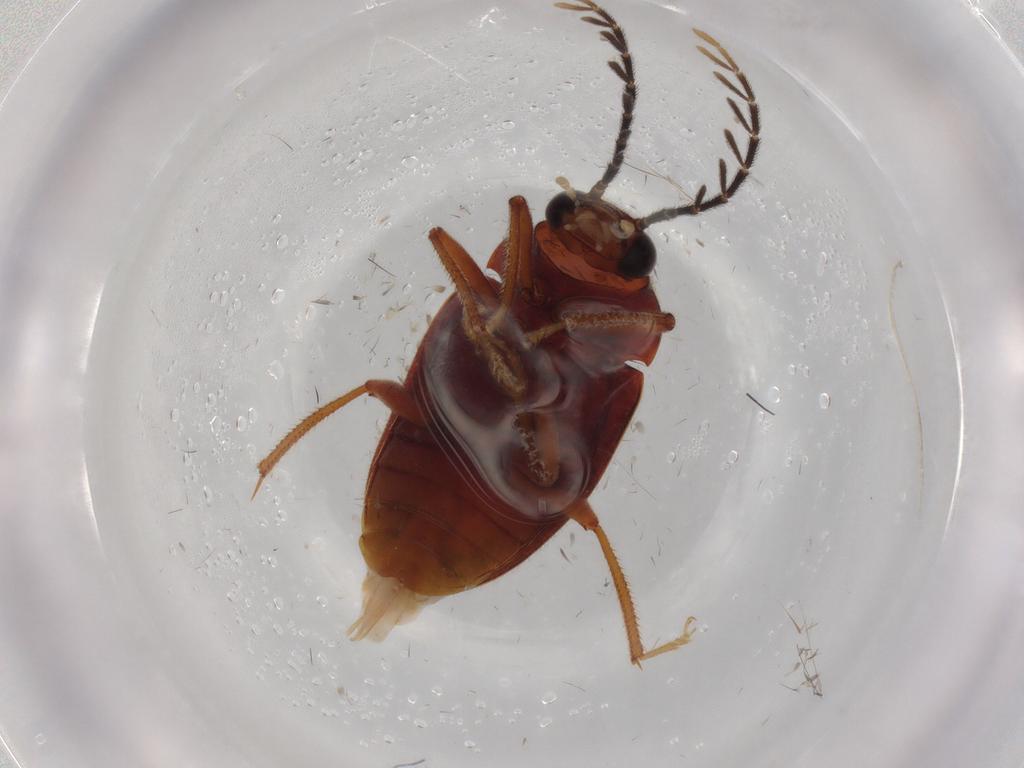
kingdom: Animalia
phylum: Arthropoda
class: Insecta
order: Coleoptera
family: Ptilodactylidae
